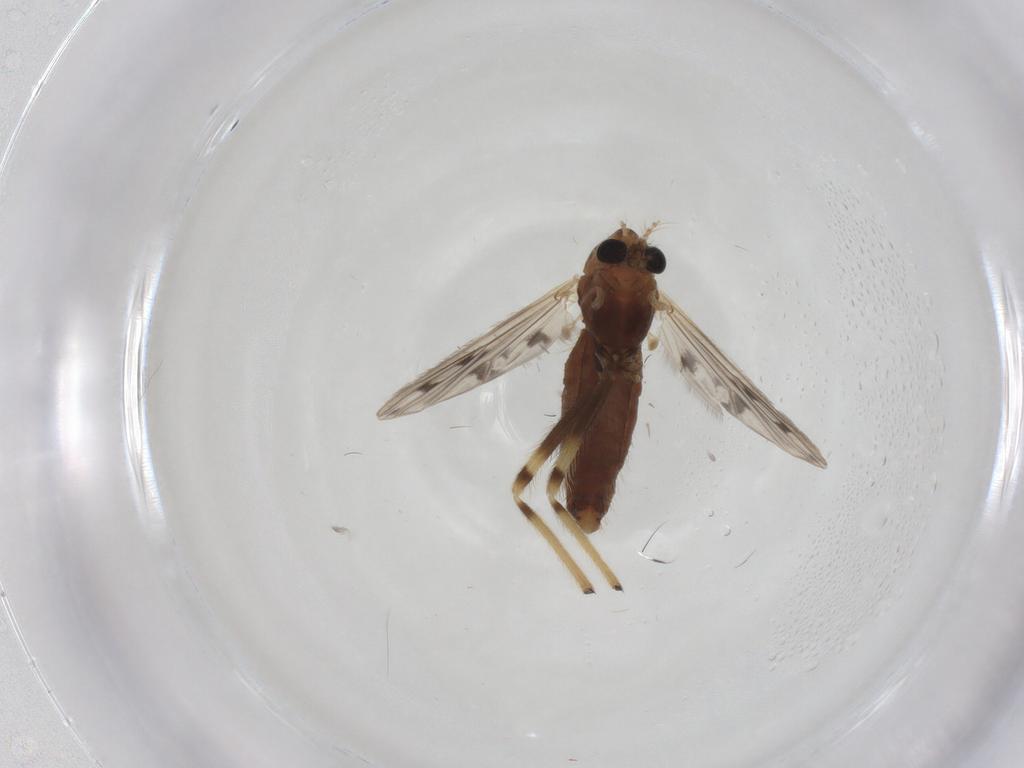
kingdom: Animalia
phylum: Arthropoda
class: Insecta
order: Diptera
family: Chironomidae
